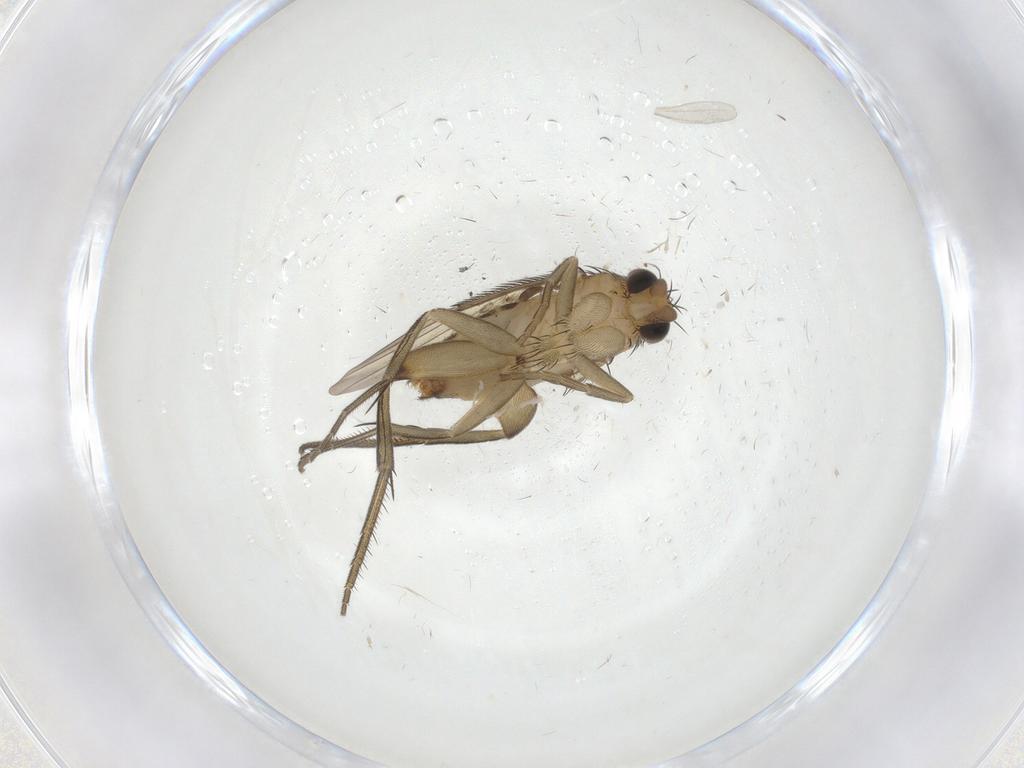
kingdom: Animalia
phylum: Arthropoda
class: Insecta
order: Diptera
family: Phoridae
